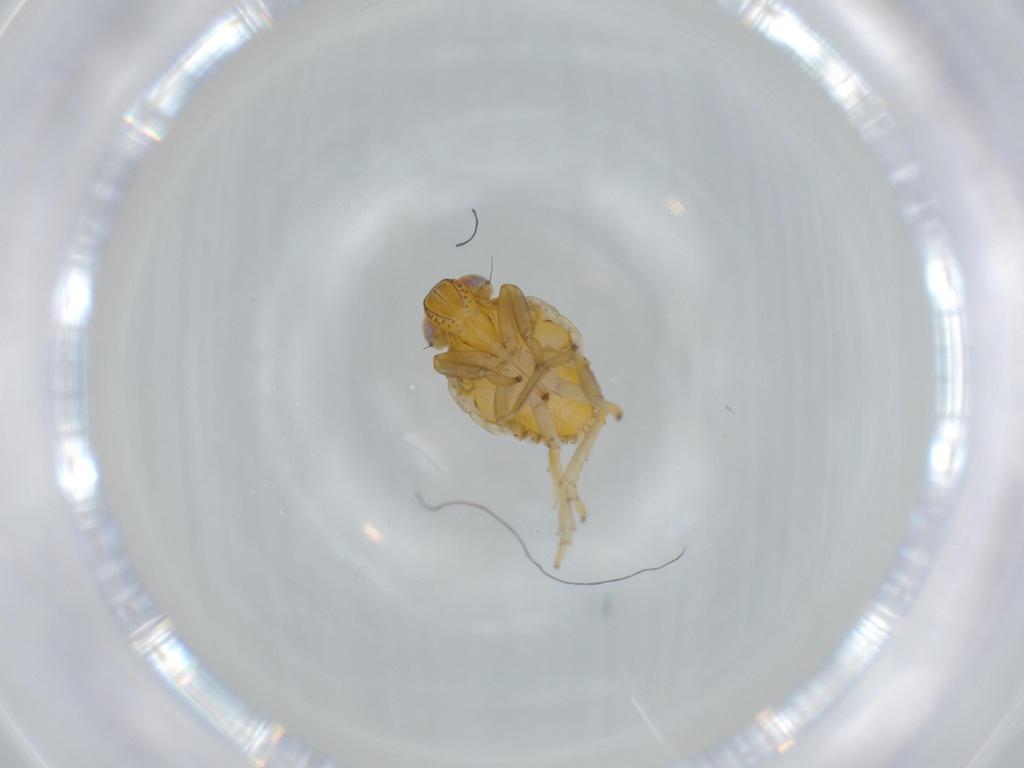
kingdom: Animalia
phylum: Arthropoda
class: Insecta
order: Hemiptera
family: Issidae
